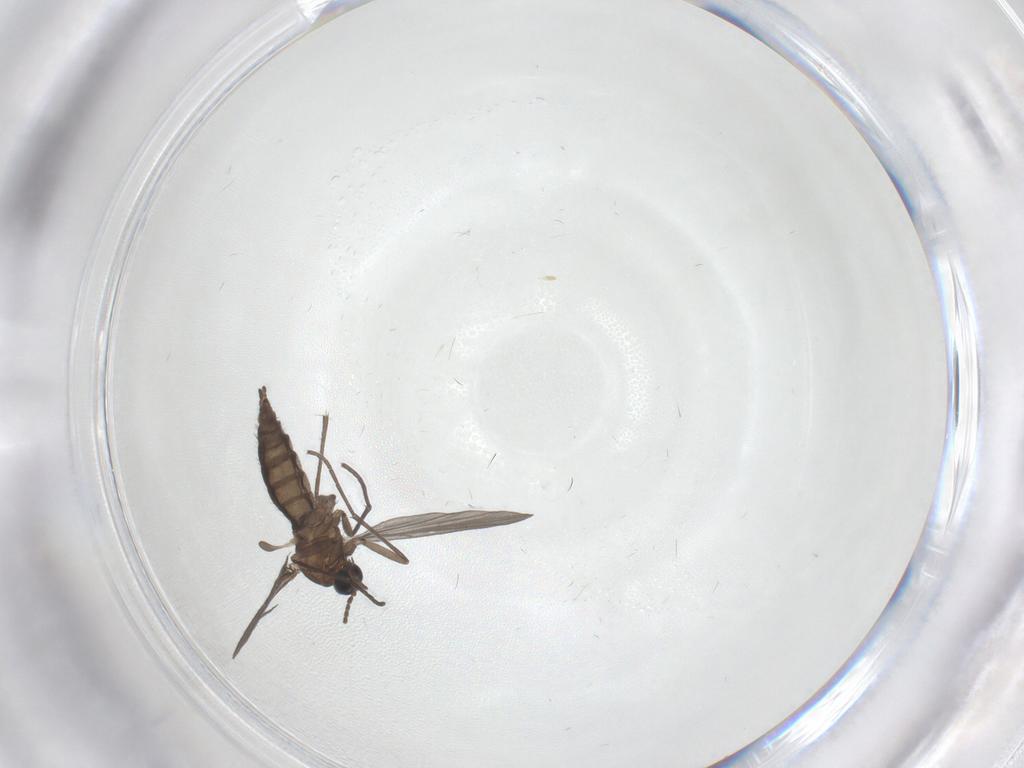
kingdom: Animalia
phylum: Arthropoda
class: Insecta
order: Diptera
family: Sciaridae
